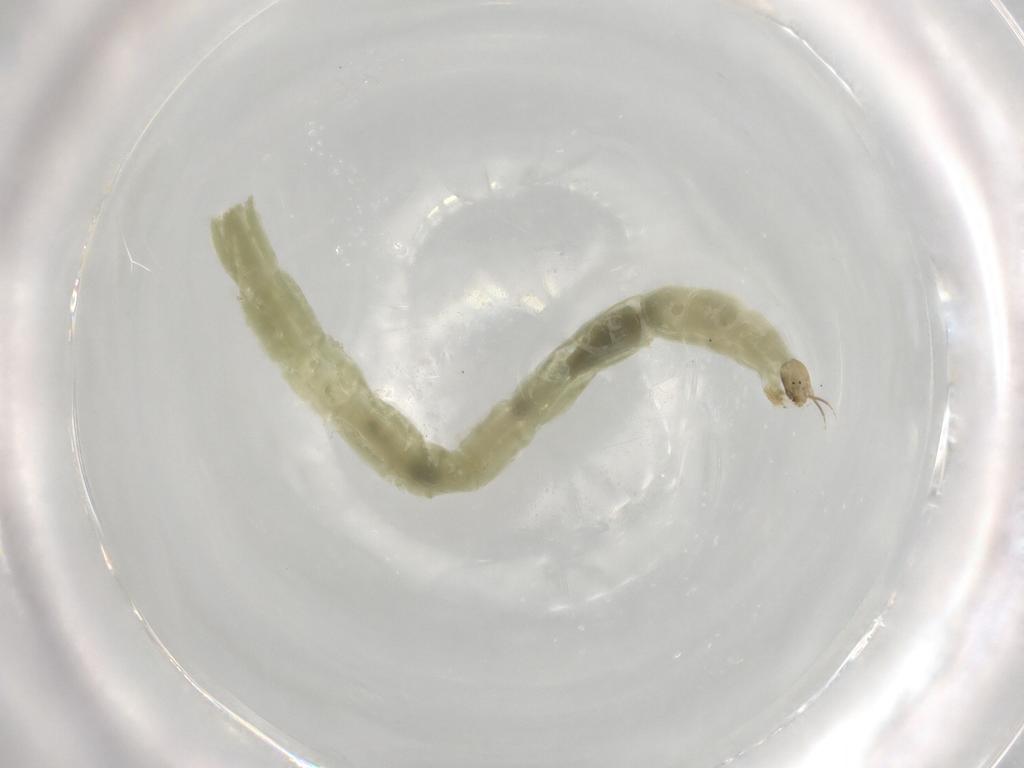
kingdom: Animalia
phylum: Arthropoda
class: Insecta
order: Diptera
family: Chironomidae
